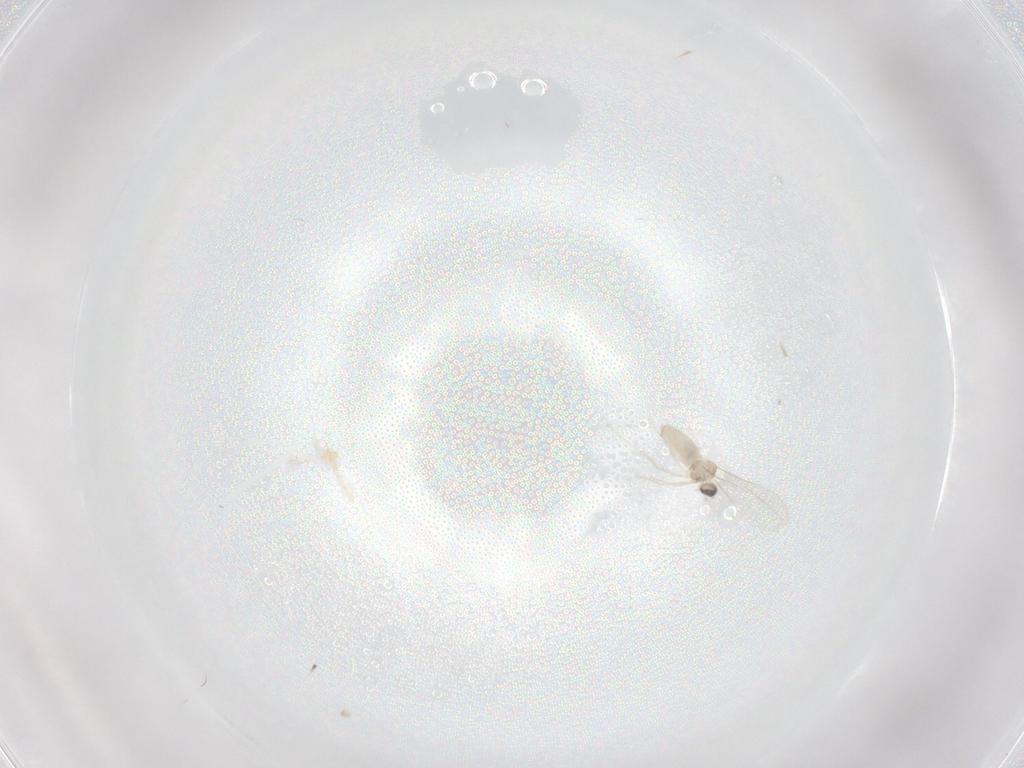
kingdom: Animalia
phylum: Arthropoda
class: Insecta
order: Diptera
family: Cecidomyiidae
